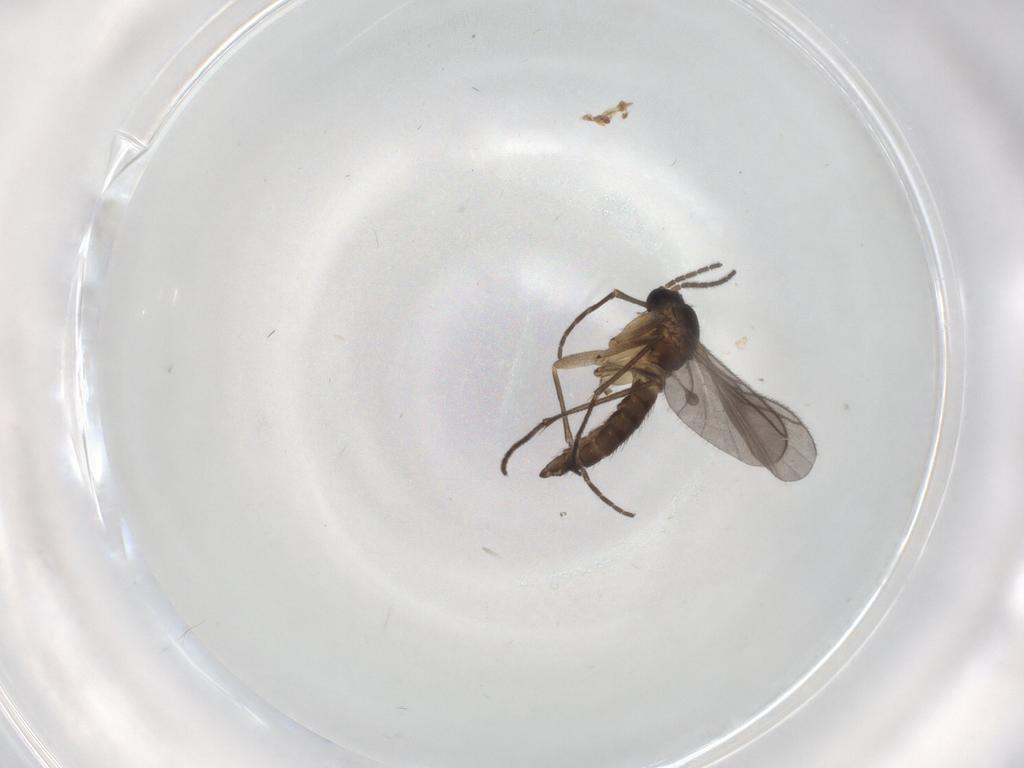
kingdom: Animalia
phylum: Arthropoda
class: Insecta
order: Diptera
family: Sciaridae
